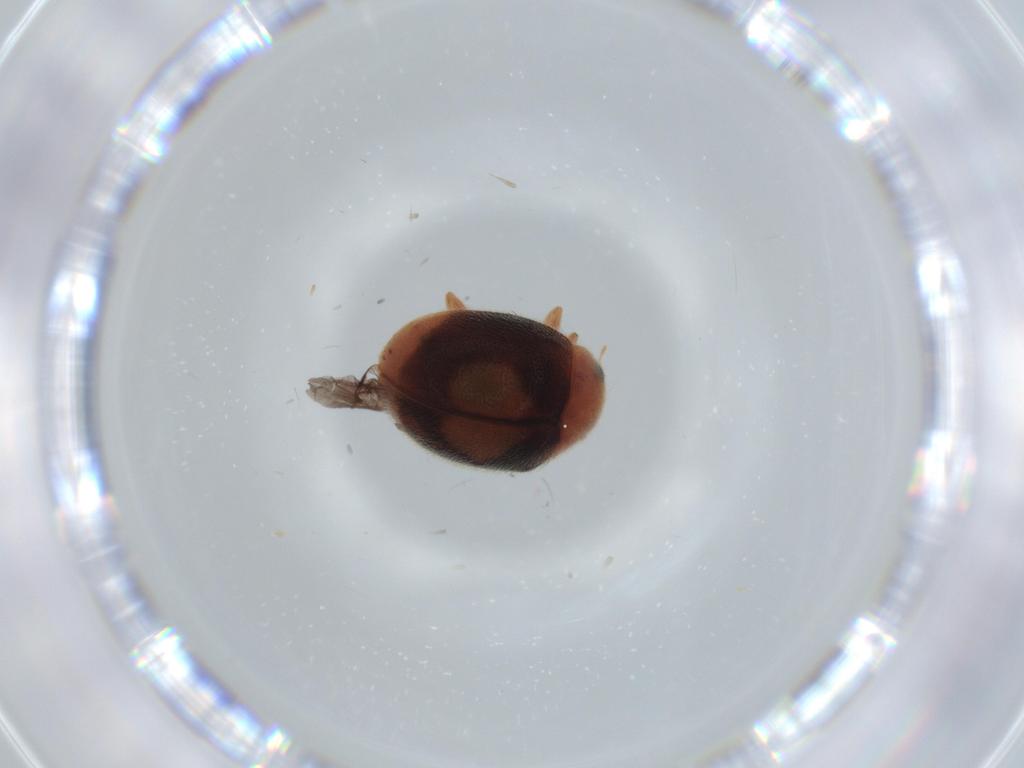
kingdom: Animalia
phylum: Arthropoda
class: Insecta
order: Coleoptera
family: Coccinellidae
